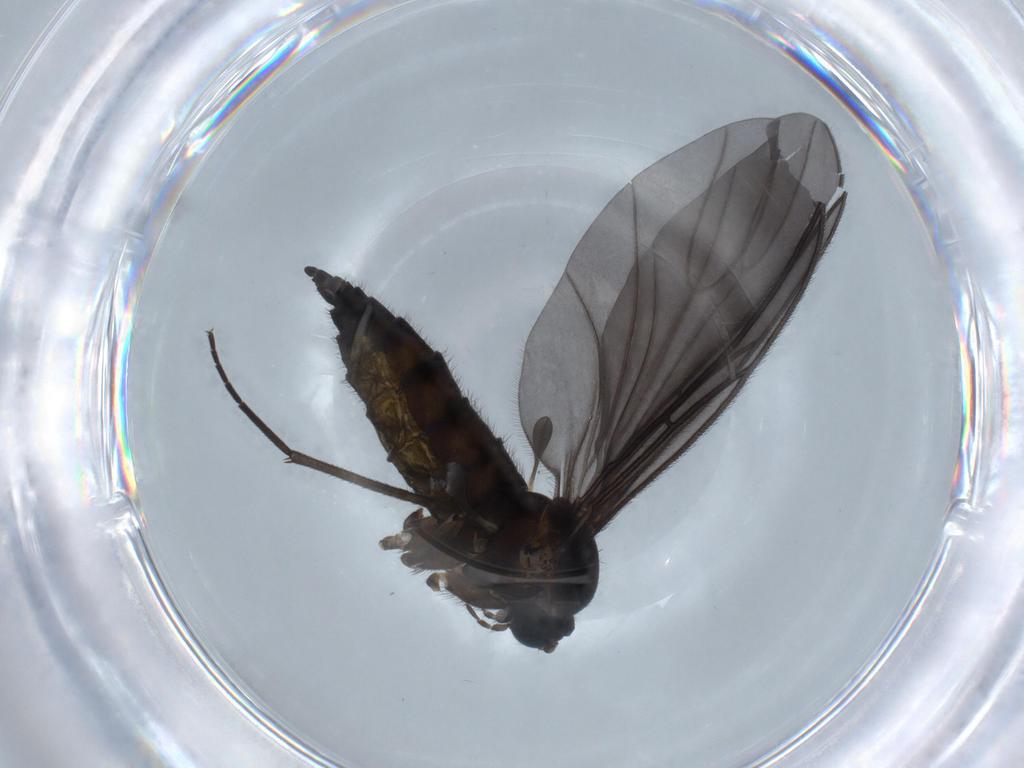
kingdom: Animalia
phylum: Arthropoda
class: Insecta
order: Diptera
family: Sciaridae
